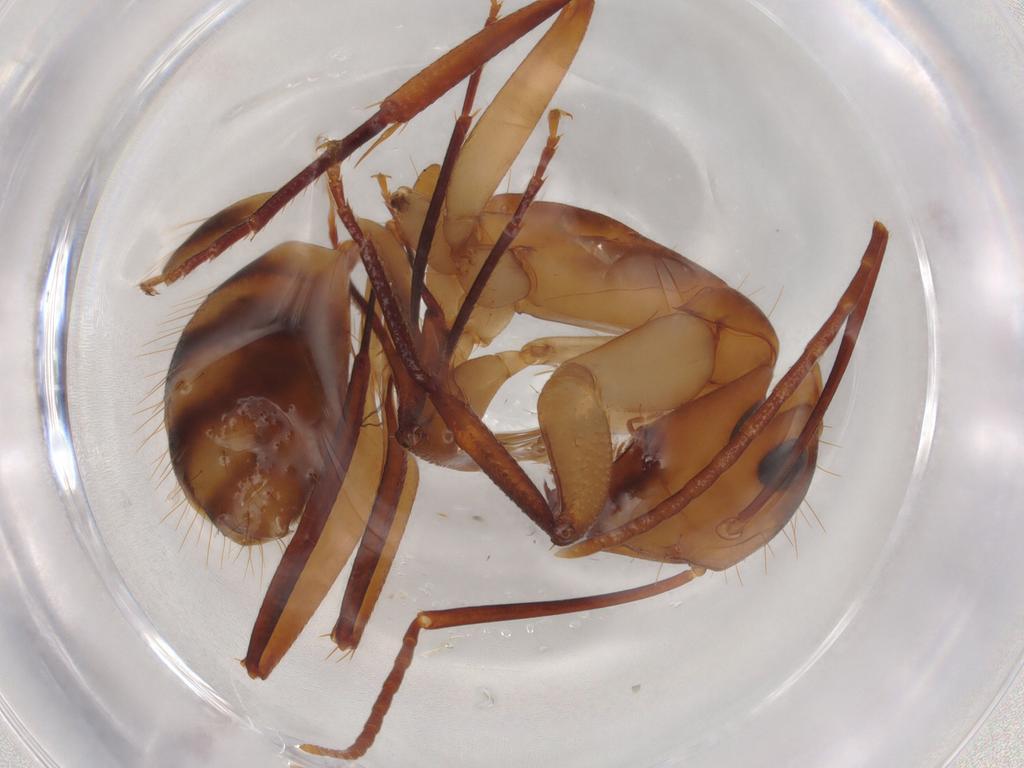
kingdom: Animalia
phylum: Arthropoda
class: Insecta
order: Hymenoptera
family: Formicidae
